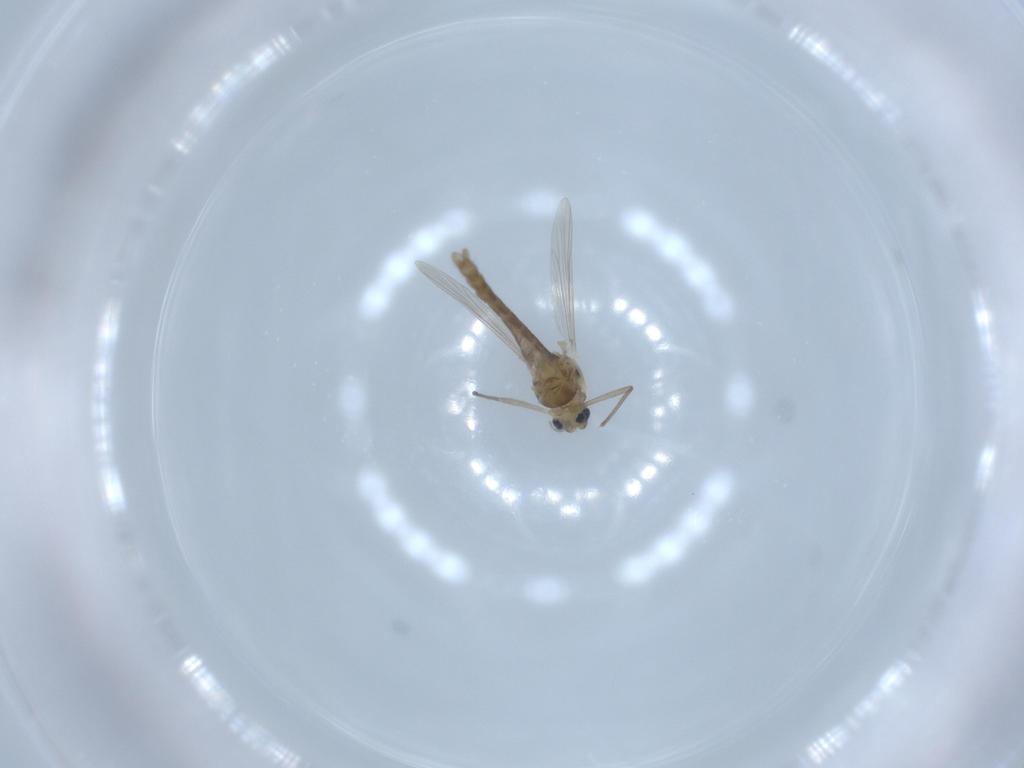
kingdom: Animalia
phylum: Arthropoda
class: Insecta
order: Diptera
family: Chironomidae
